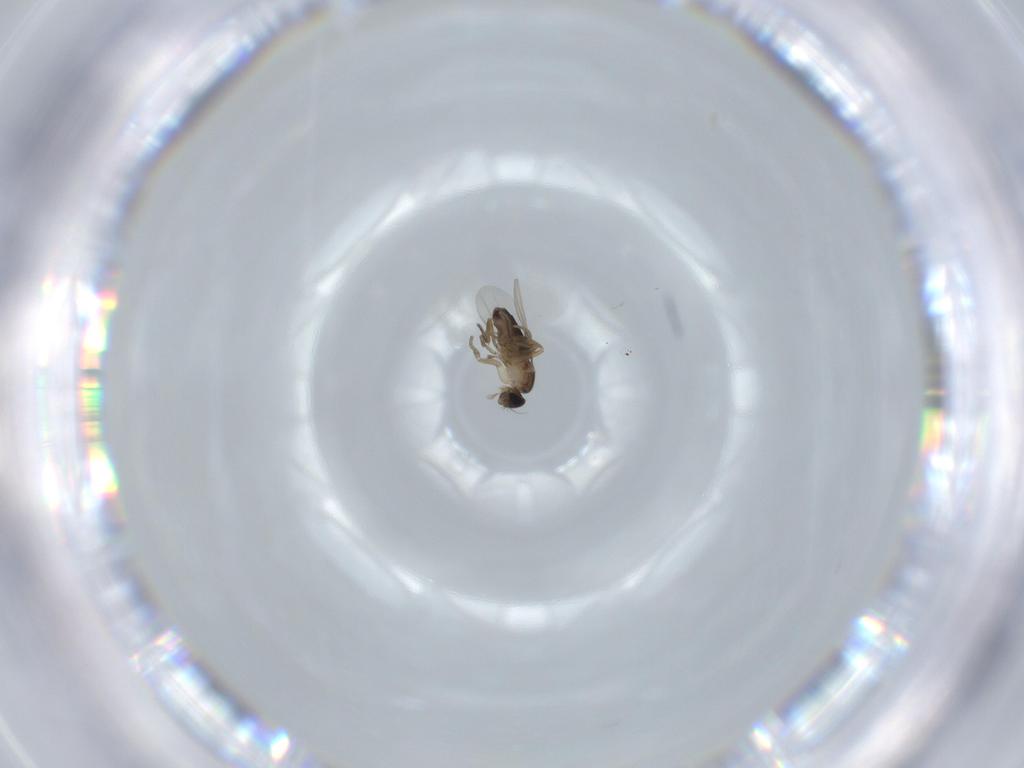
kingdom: Animalia
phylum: Arthropoda
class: Insecta
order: Diptera
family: Phoridae
